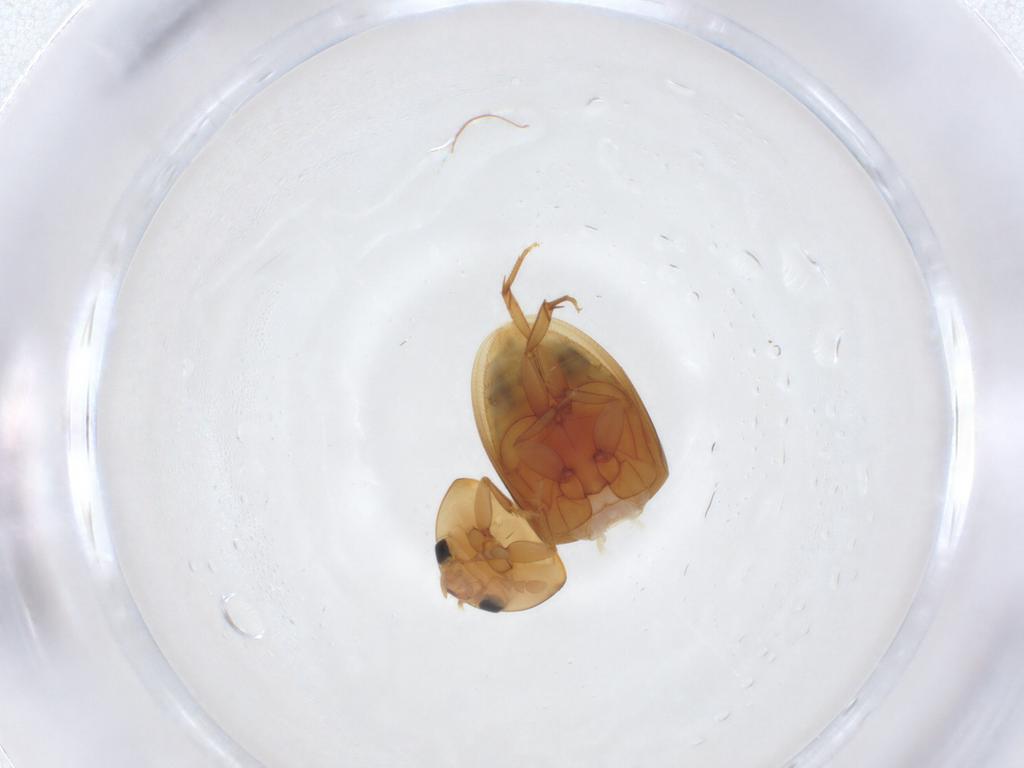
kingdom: Animalia
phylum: Arthropoda
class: Insecta
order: Coleoptera
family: Phalacridae
